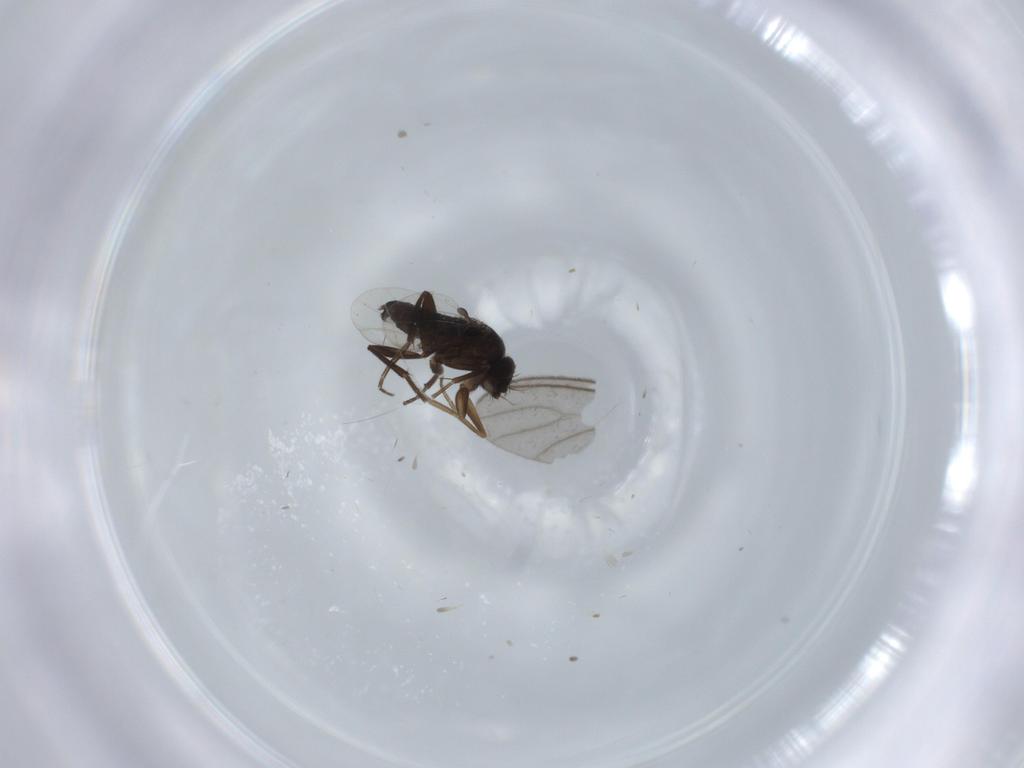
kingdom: Animalia
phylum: Arthropoda
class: Insecta
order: Diptera
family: Phoridae
